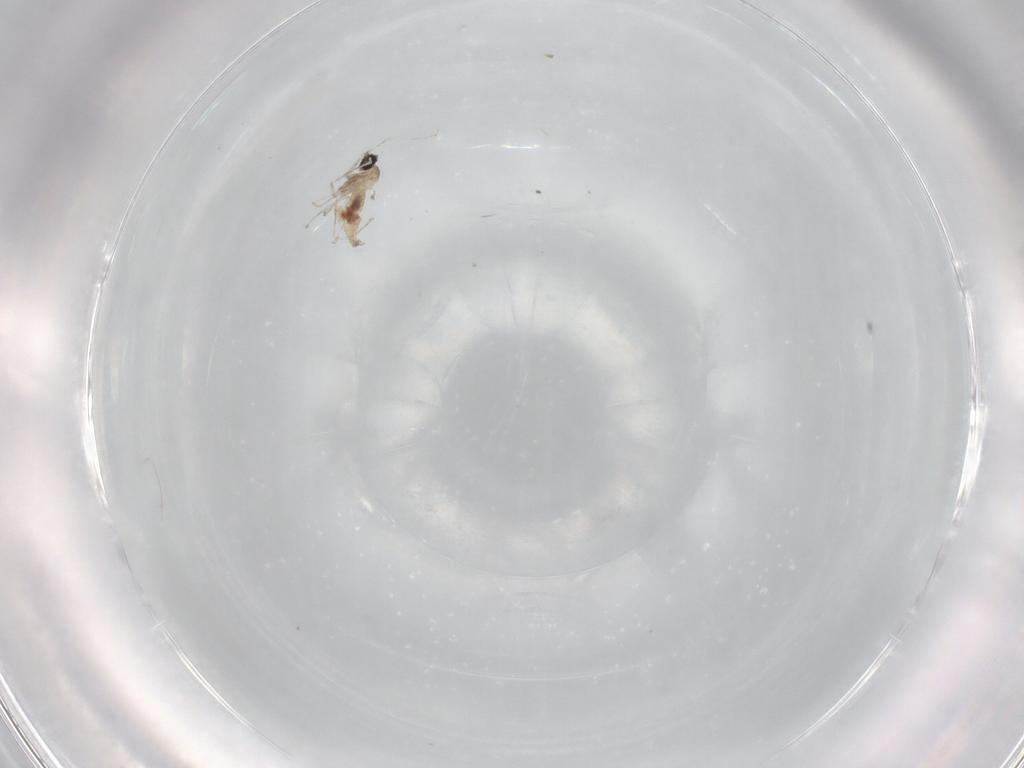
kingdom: Animalia
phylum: Arthropoda
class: Insecta
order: Diptera
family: Cecidomyiidae
